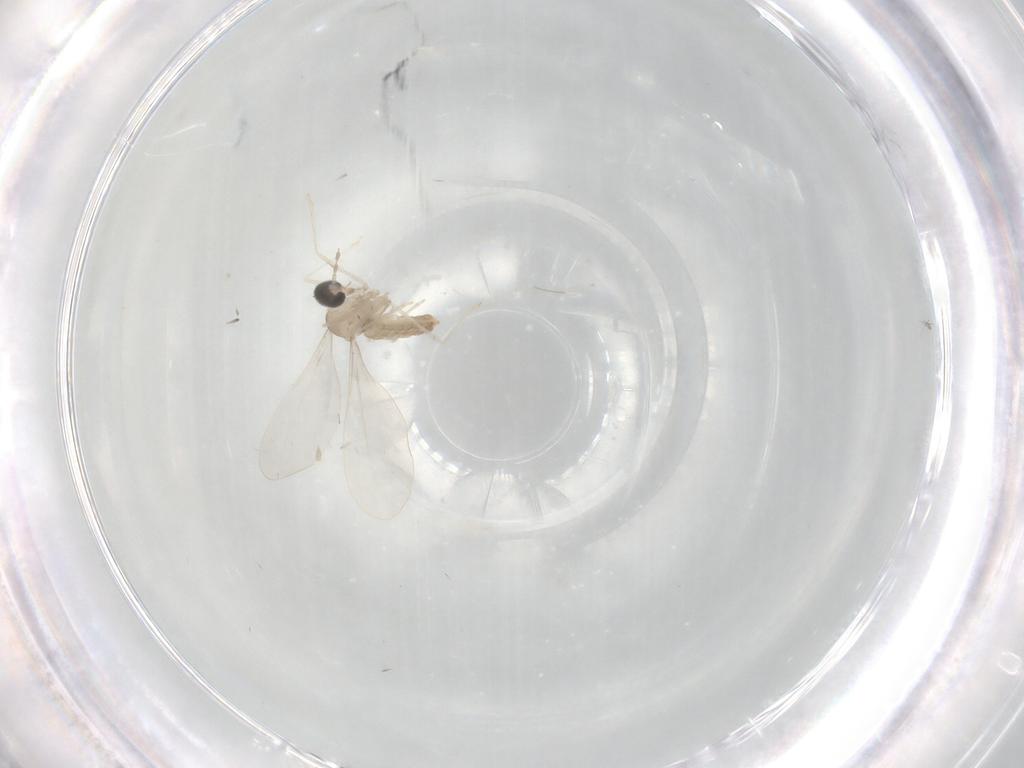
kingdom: Animalia
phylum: Arthropoda
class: Insecta
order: Diptera
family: Chironomidae
